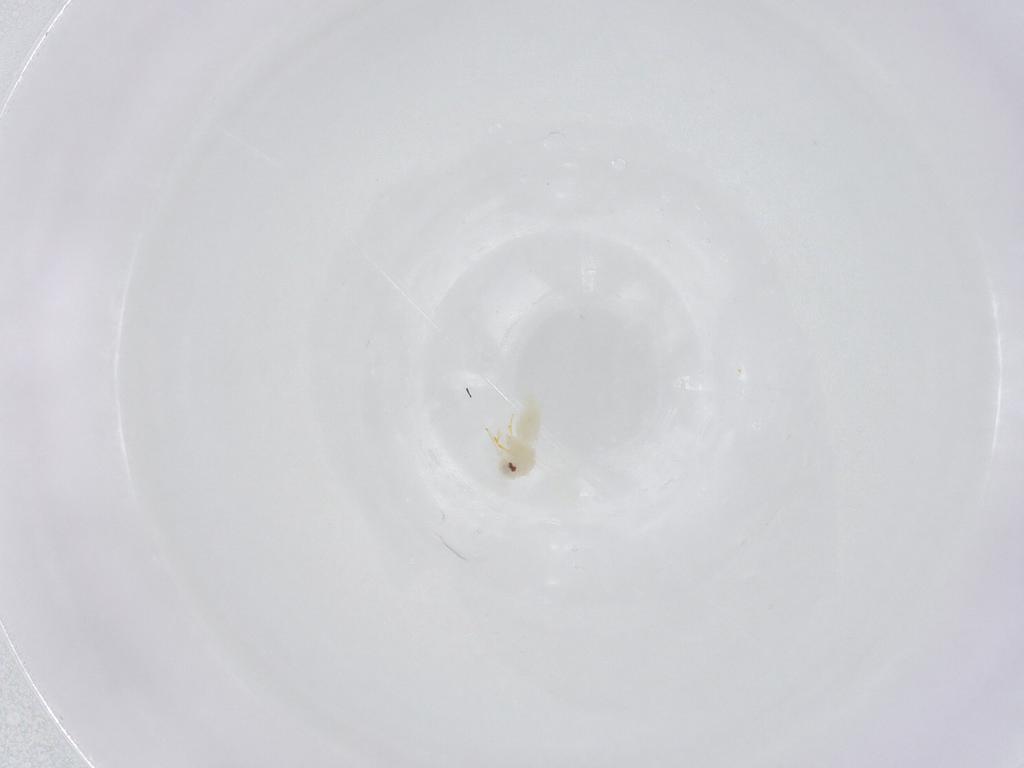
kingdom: Animalia
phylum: Arthropoda
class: Insecta
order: Hemiptera
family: Aleyrodidae
